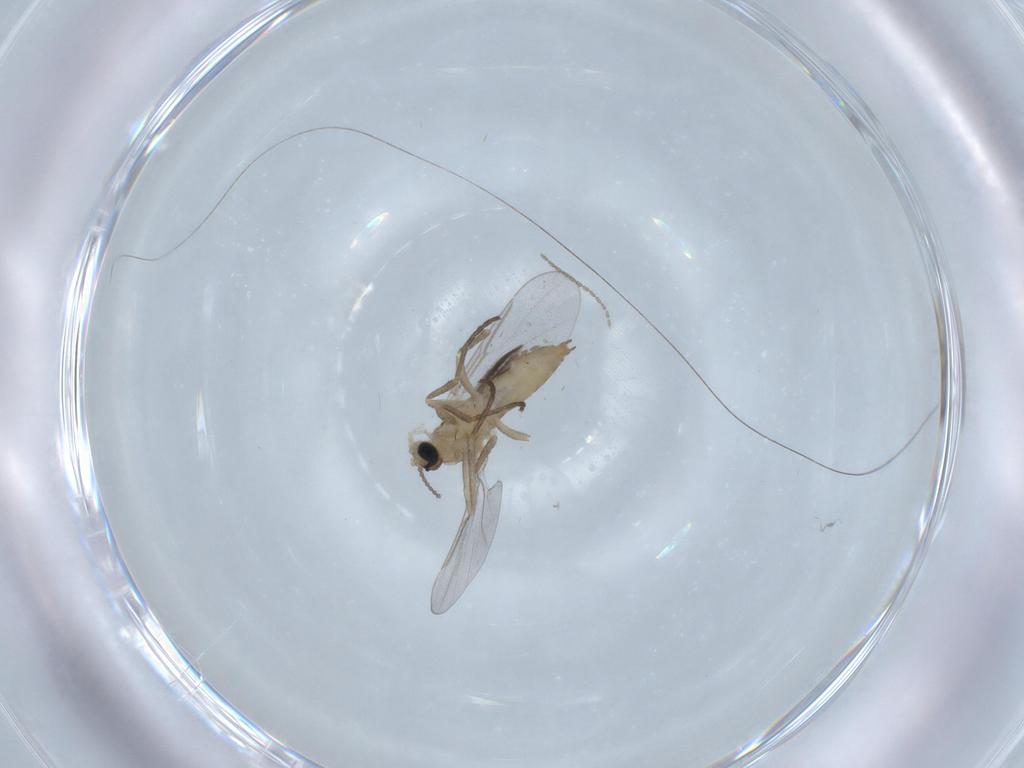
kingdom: Animalia
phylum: Arthropoda
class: Insecta
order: Diptera
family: Cecidomyiidae
